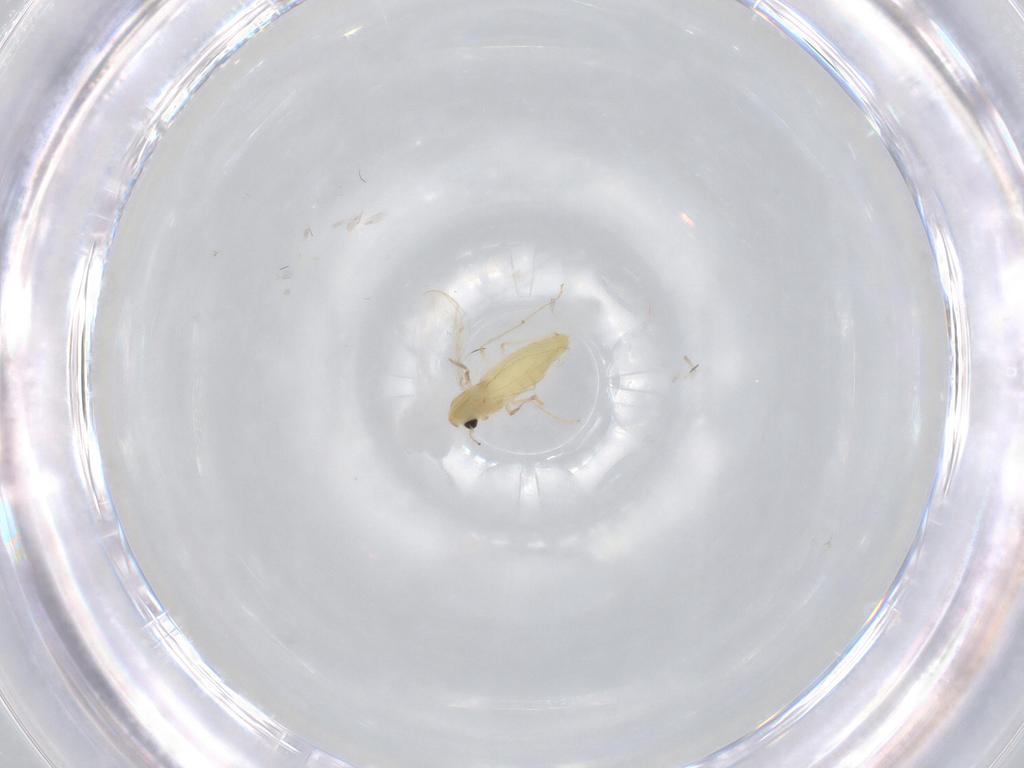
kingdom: Animalia
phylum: Arthropoda
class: Insecta
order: Diptera
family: Chironomidae
